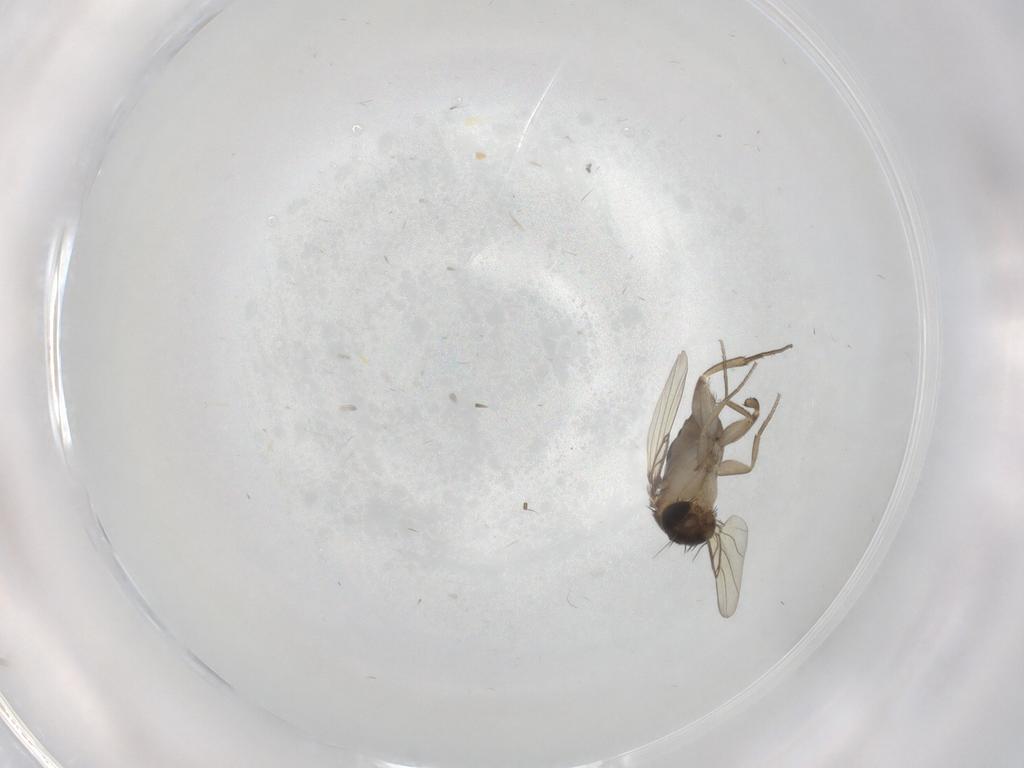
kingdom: Animalia
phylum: Arthropoda
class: Insecta
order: Diptera
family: Phoridae
